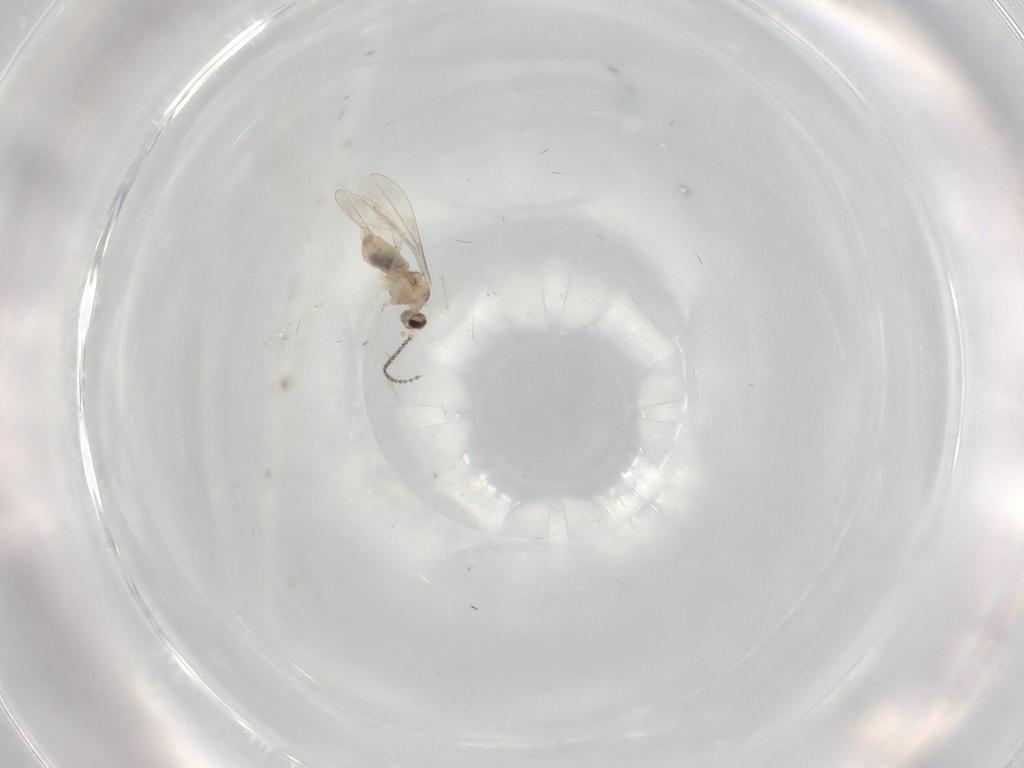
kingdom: Animalia
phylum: Arthropoda
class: Insecta
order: Diptera
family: Cecidomyiidae
